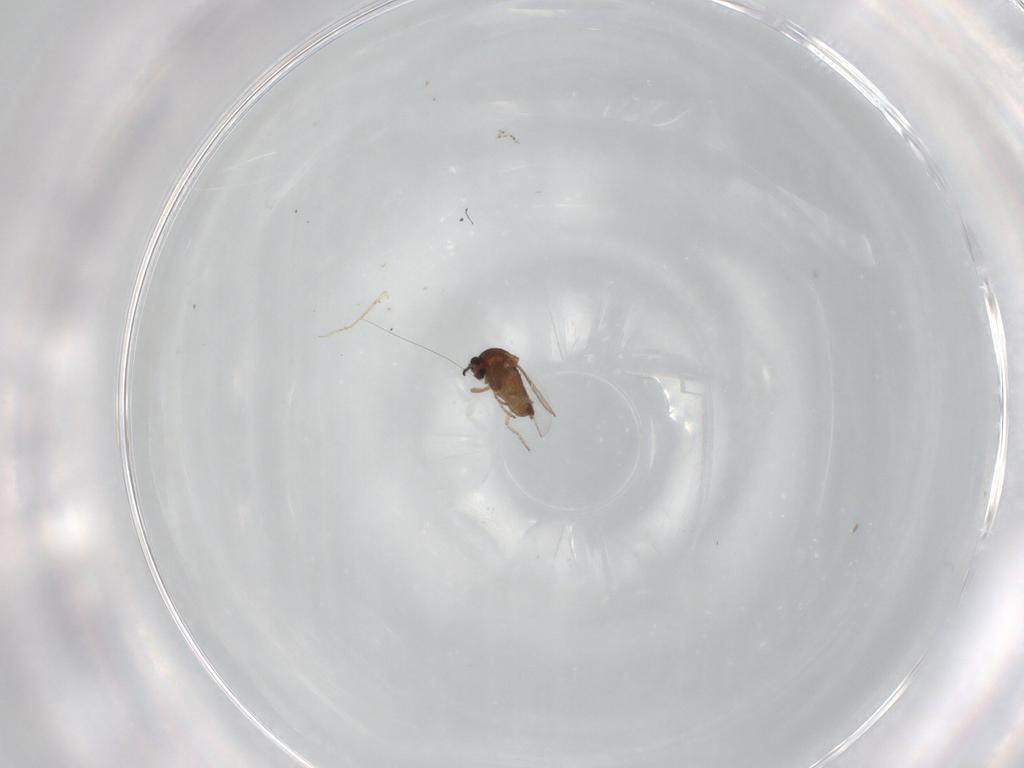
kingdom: Animalia
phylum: Arthropoda
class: Insecta
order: Diptera
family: Ceratopogonidae
